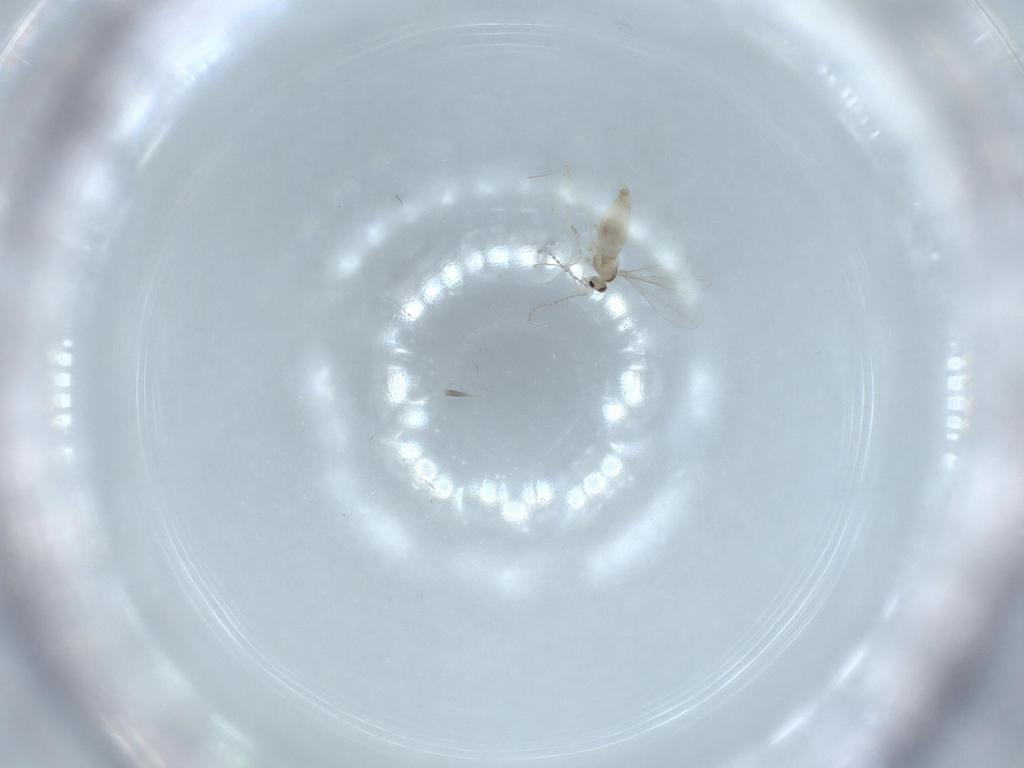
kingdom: Animalia
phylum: Arthropoda
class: Insecta
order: Diptera
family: Cecidomyiidae
